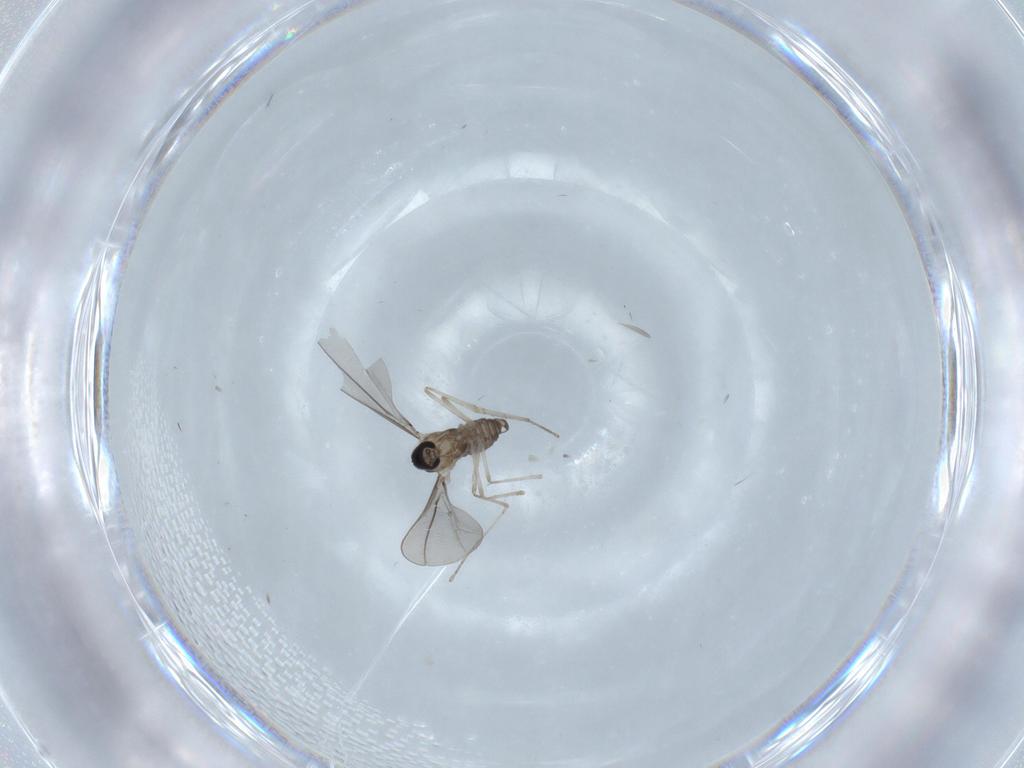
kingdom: Animalia
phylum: Arthropoda
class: Insecta
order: Diptera
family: Cecidomyiidae
